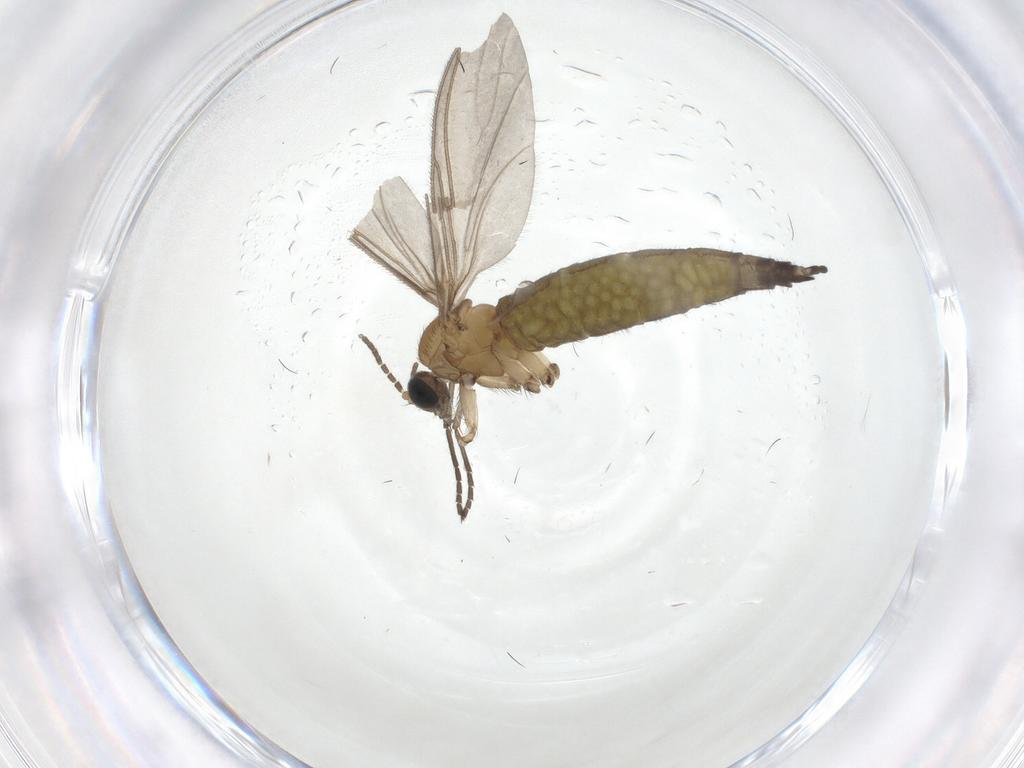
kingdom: Animalia
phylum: Arthropoda
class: Insecta
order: Diptera
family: Sciaridae
